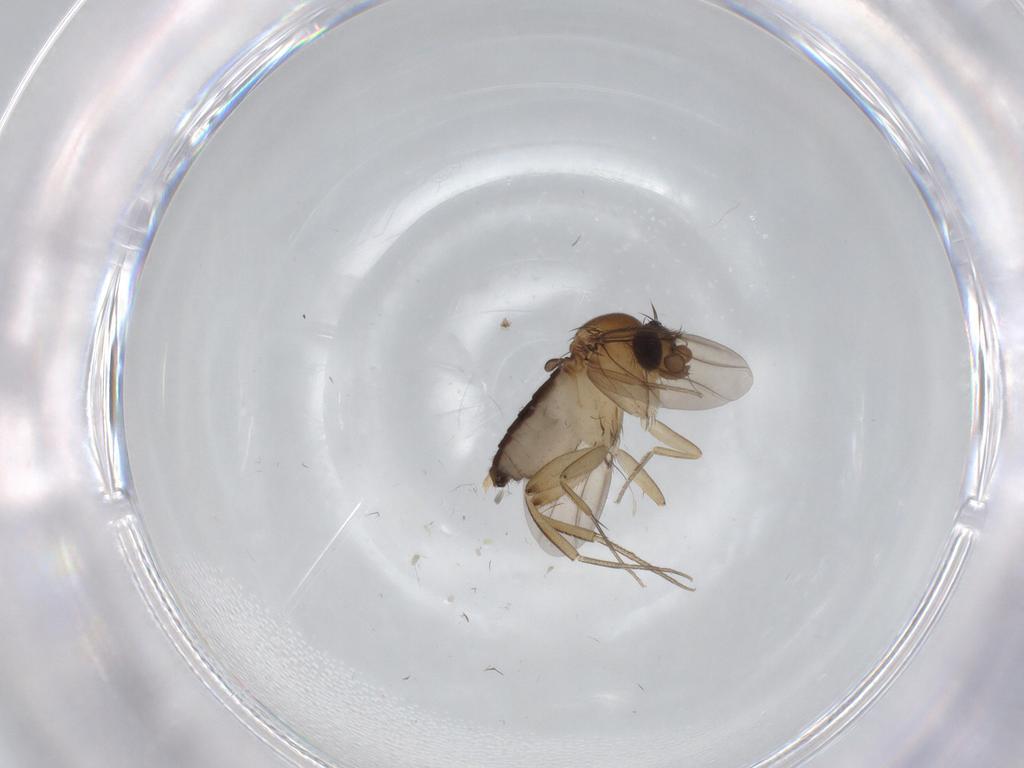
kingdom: Animalia
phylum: Arthropoda
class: Insecta
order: Diptera
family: Phoridae
